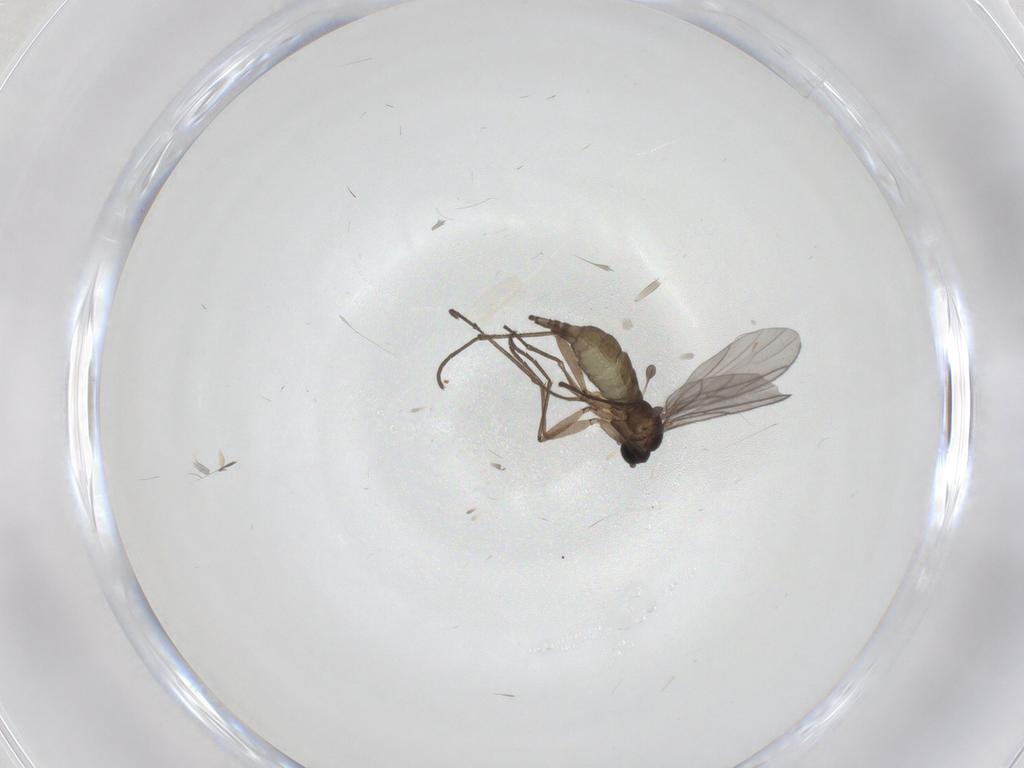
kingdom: Animalia
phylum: Arthropoda
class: Insecta
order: Diptera
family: Sciaridae
